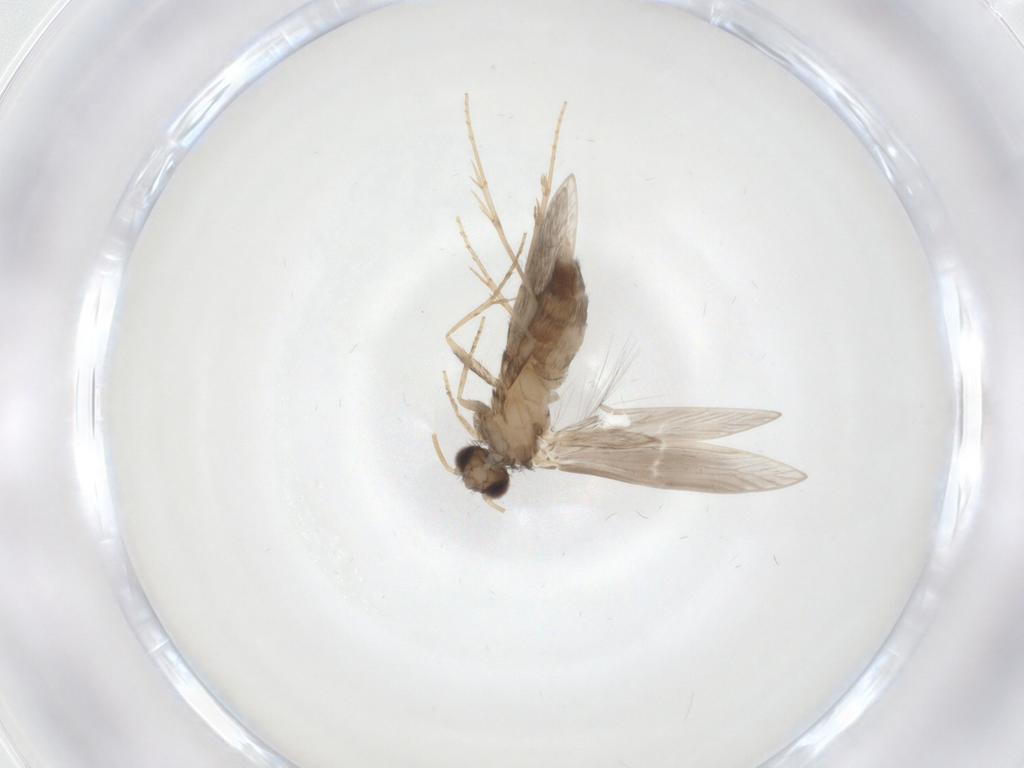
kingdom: Animalia
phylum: Arthropoda
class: Insecta
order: Trichoptera
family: Hydroptilidae
